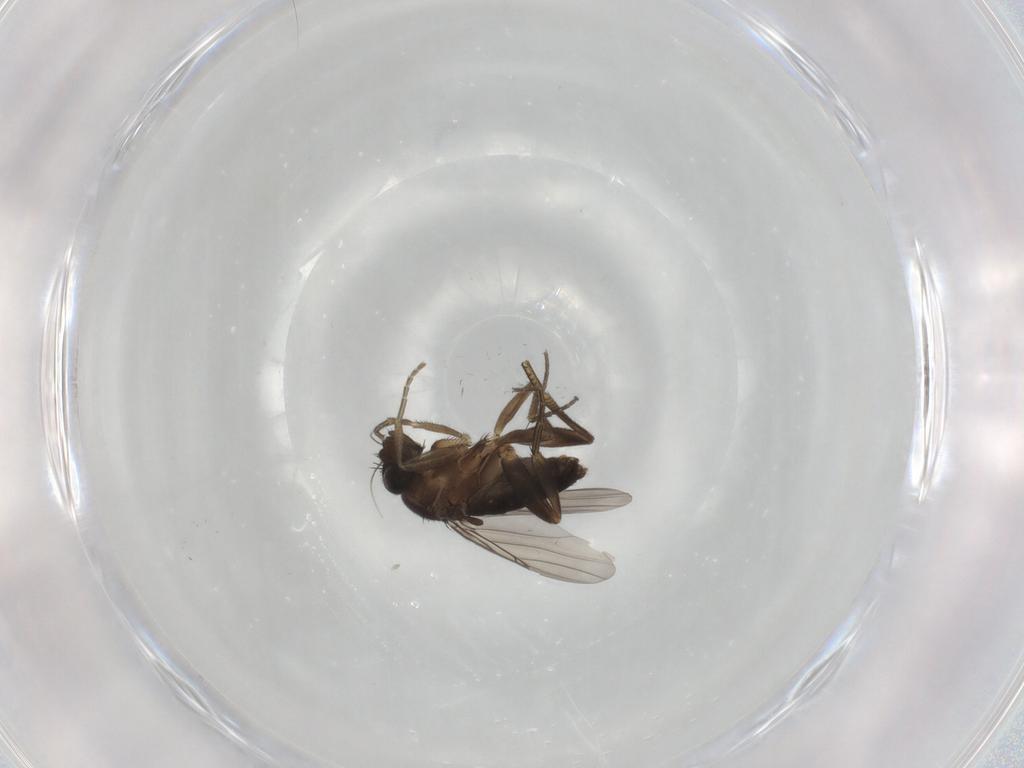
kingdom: Animalia
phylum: Arthropoda
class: Insecta
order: Diptera
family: Phoridae
